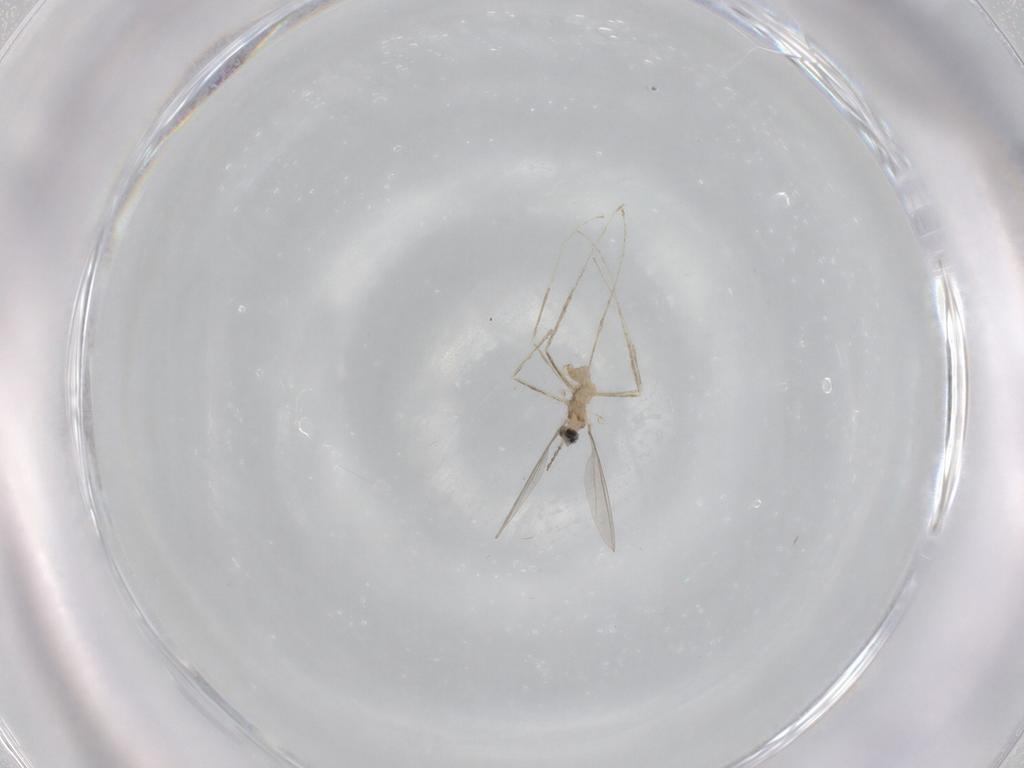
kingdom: Animalia
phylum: Arthropoda
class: Insecta
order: Diptera
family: Cecidomyiidae
